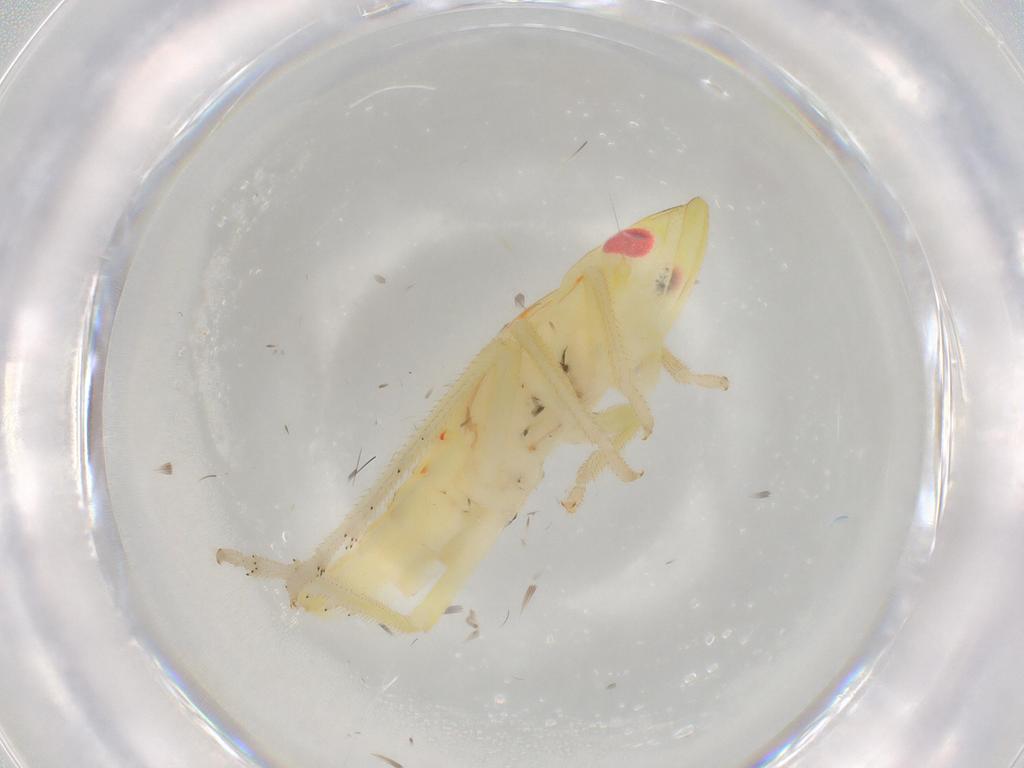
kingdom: Animalia
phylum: Arthropoda
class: Insecta
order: Hemiptera
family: Tropiduchidae
